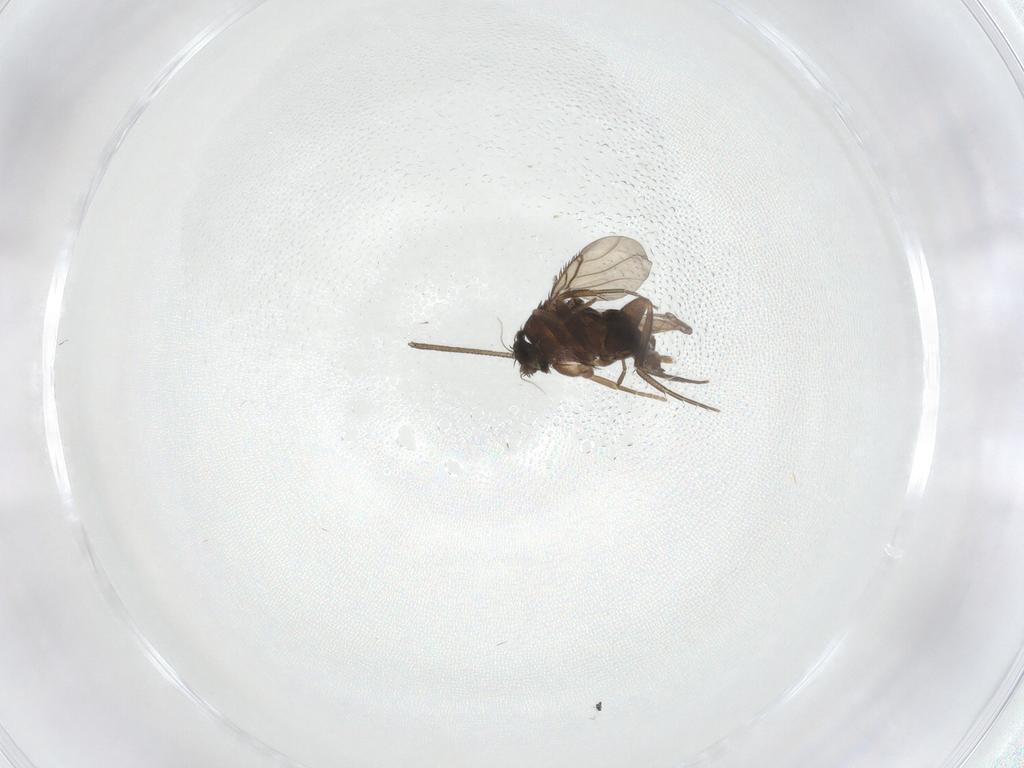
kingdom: Animalia
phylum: Arthropoda
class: Insecta
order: Diptera
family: Phoridae
